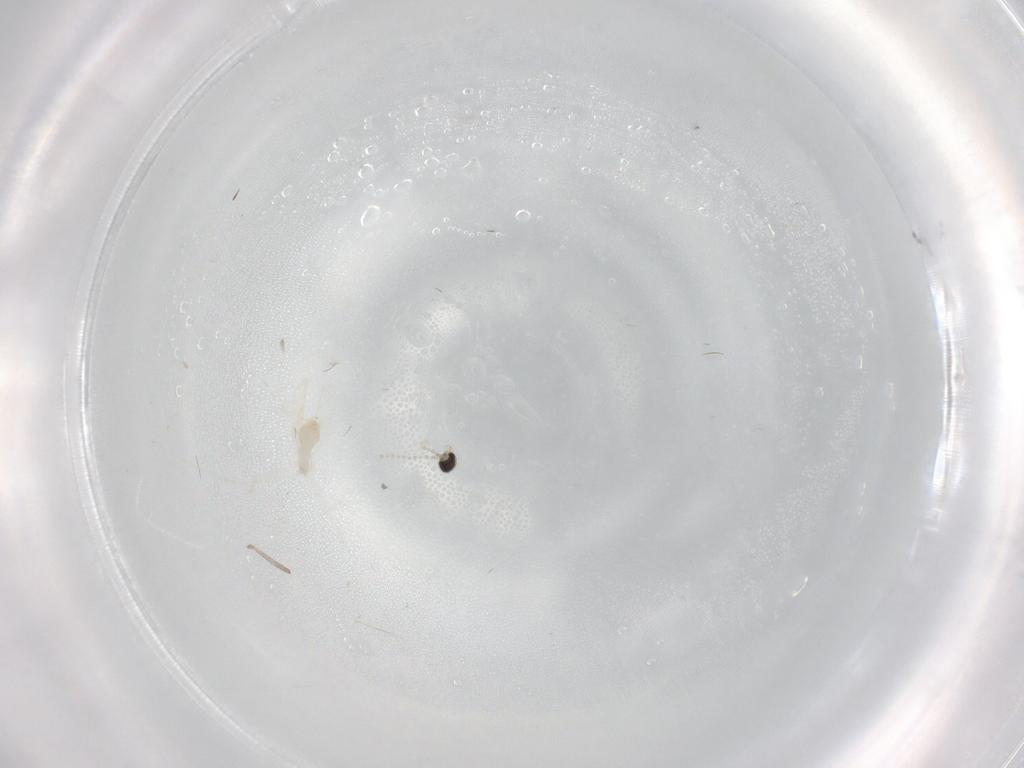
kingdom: Animalia
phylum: Arthropoda
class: Insecta
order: Diptera
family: Cecidomyiidae
